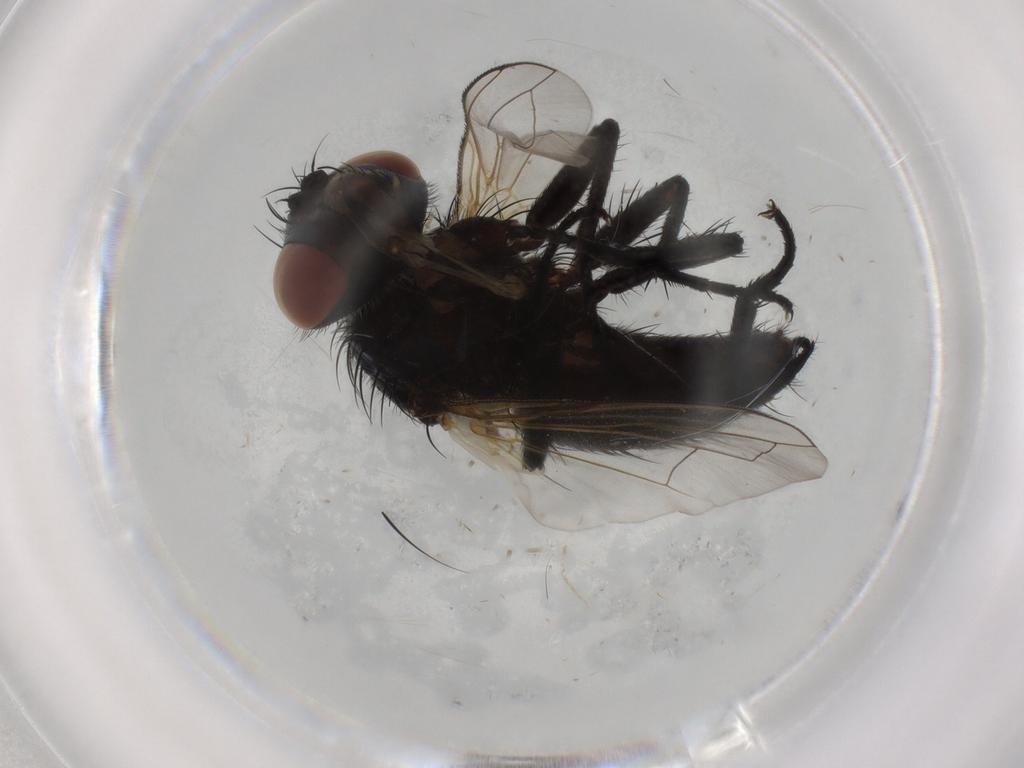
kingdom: Animalia
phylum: Arthropoda
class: Insecta
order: Diptera
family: Tachinidae
